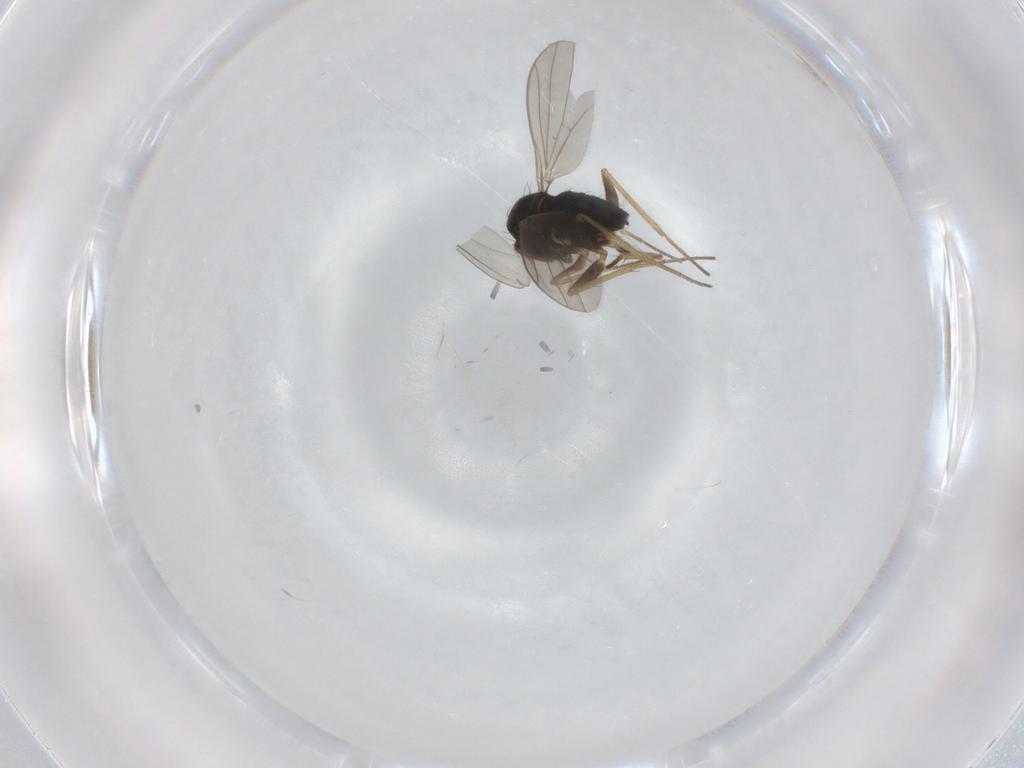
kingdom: Animalia
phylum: Arthropoda
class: Insecta
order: Diptera
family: Dolichopodidae
